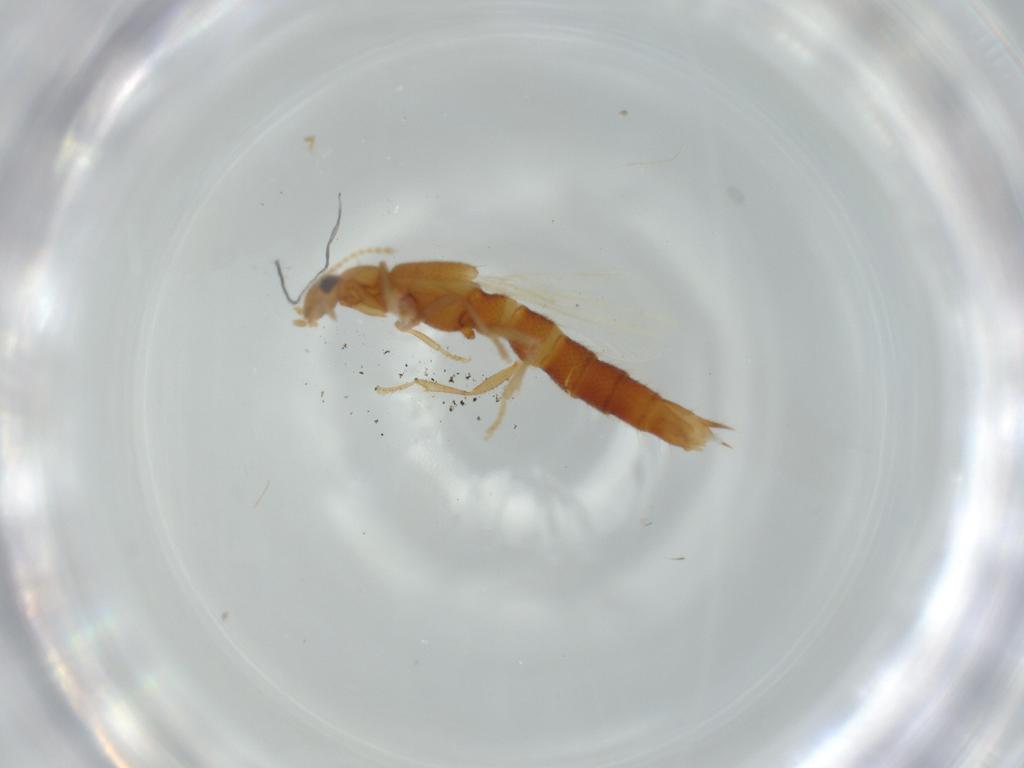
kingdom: Animalia
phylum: Arthropoda
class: Insecta
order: Coleoptera
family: Staphylinidae
